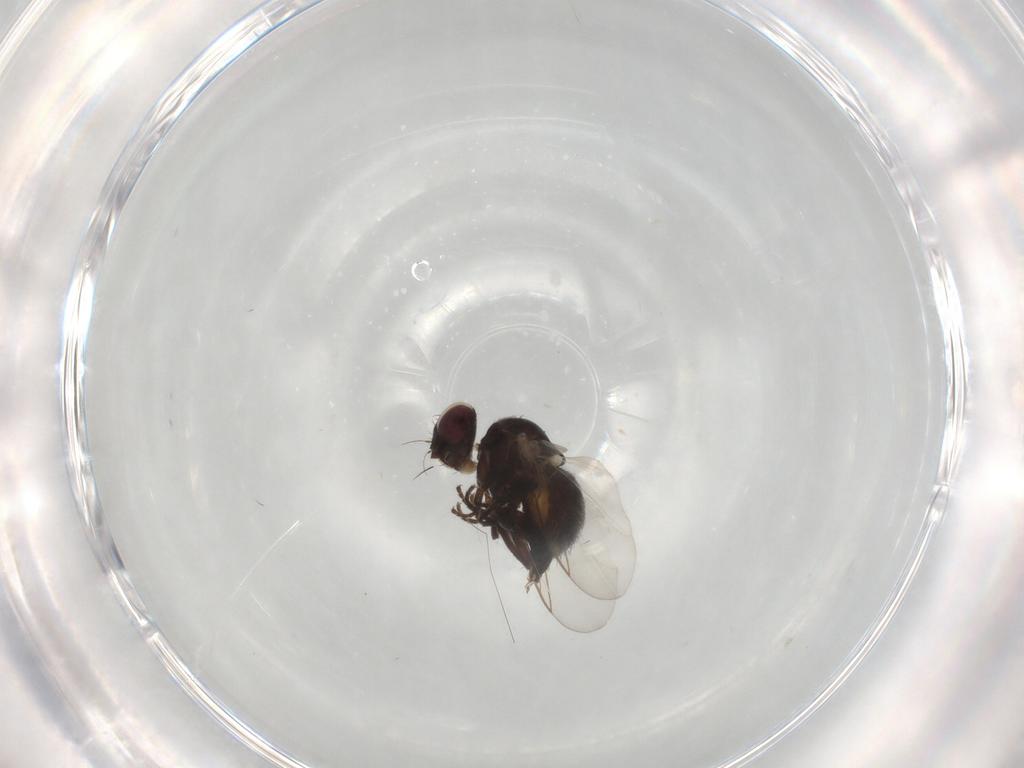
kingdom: Animalia
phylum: Arthropoda
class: Insecta
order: Diptera
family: Agromyzidae
